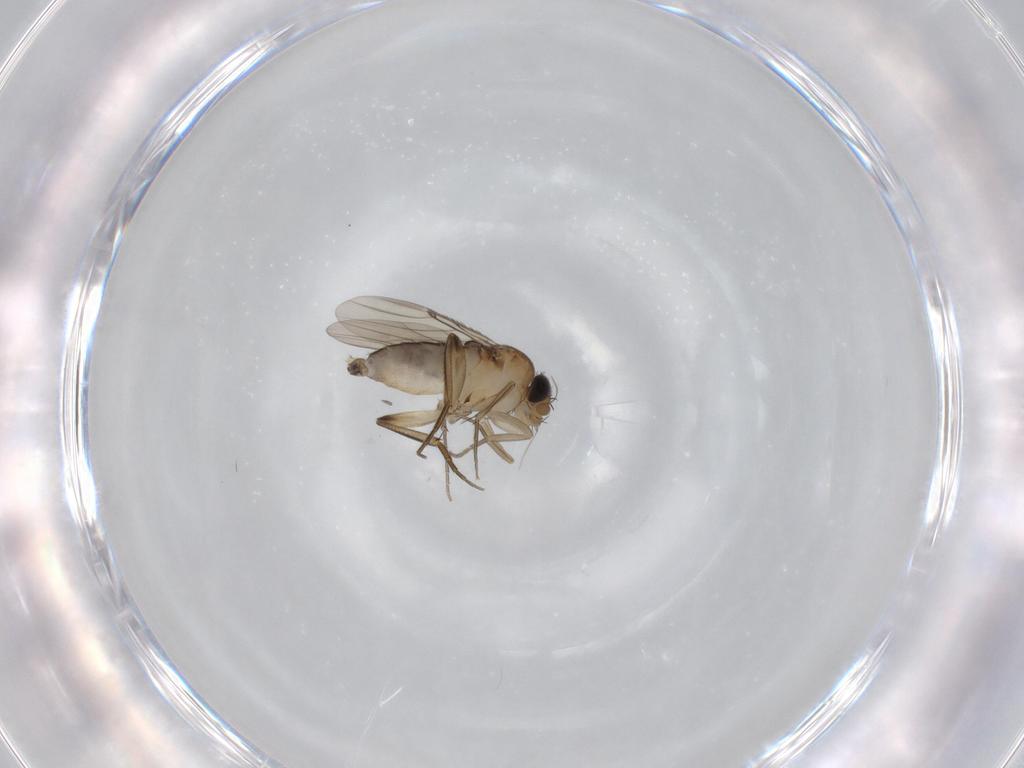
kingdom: Animalia
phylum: Arthropoda
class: Insecta
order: Diptera
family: Phoridae
